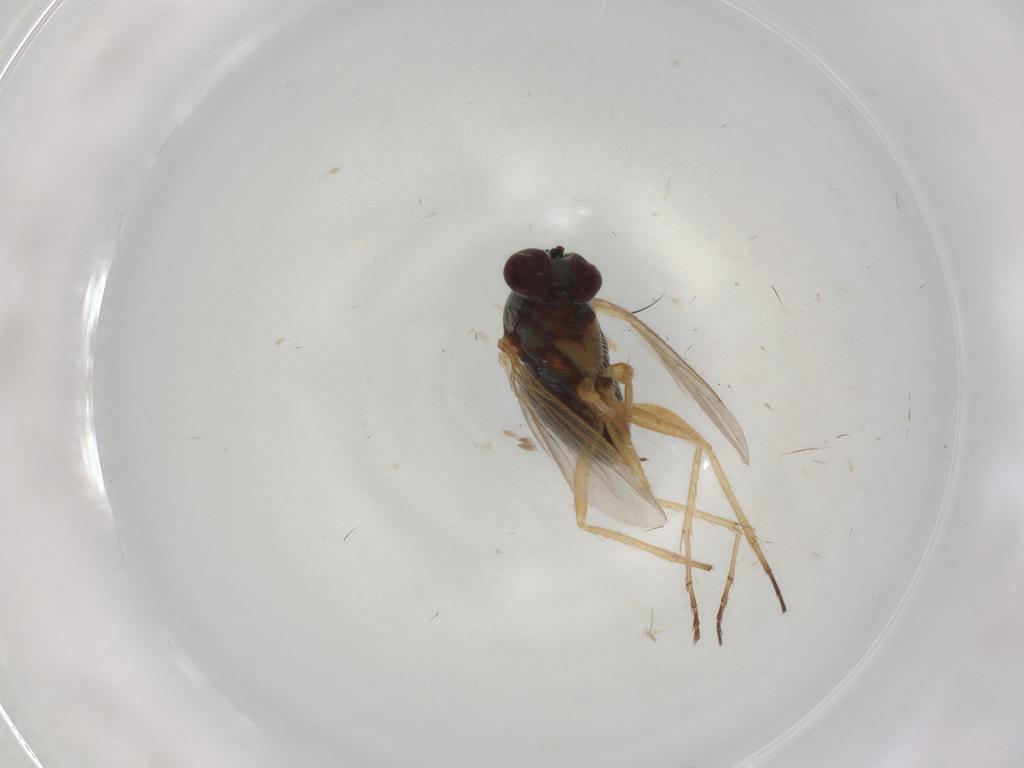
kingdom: Animalia
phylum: Arthropoda
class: Insecta
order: Diptera
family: Dolichopodidae
